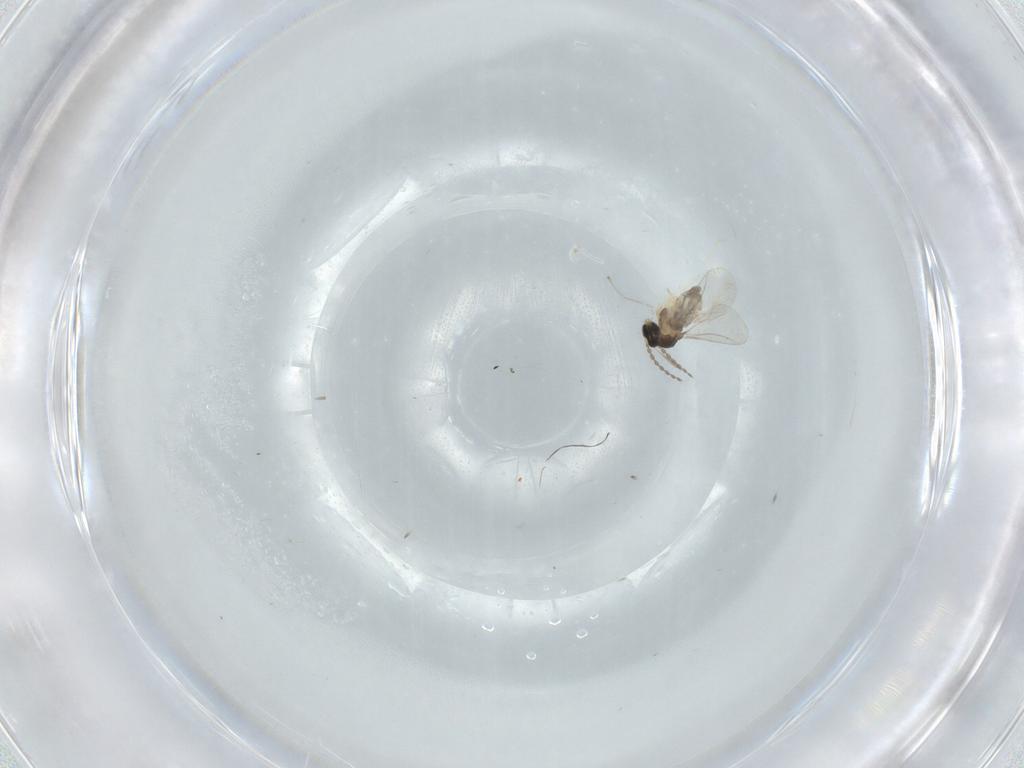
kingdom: Animalia
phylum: Arthropoda
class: Insecta
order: Diptera
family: Cecidomyiidae
